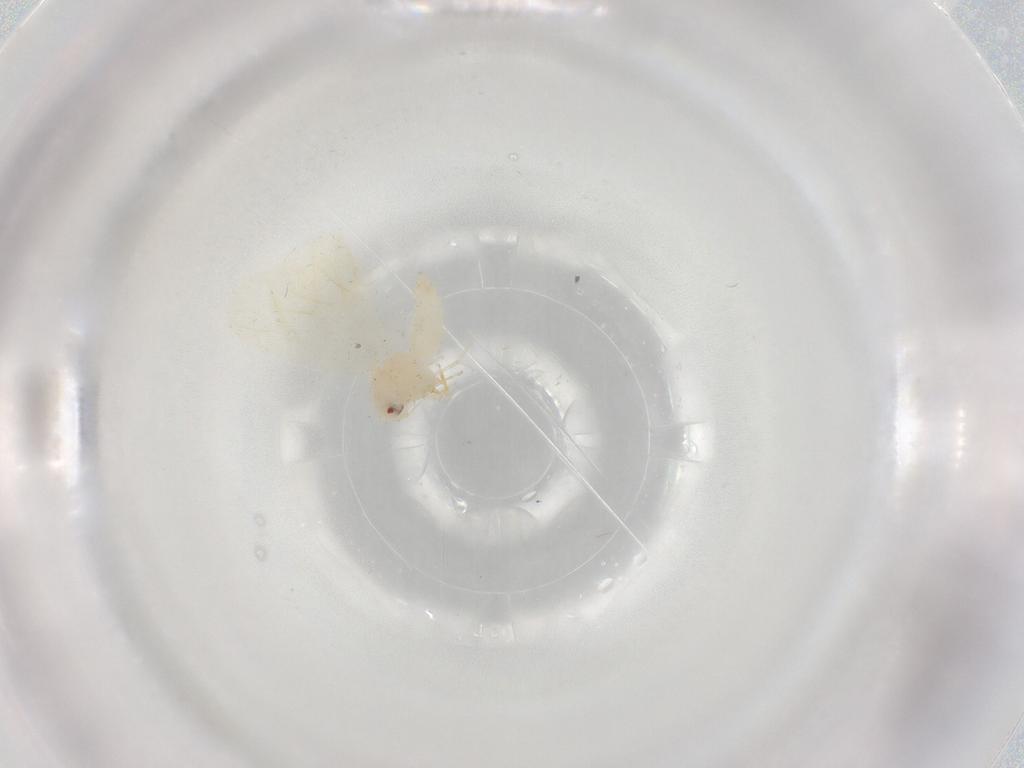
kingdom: Animalia
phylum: Arthropoda
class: Insecta
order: Hemiptera
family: Aleyrodidae
